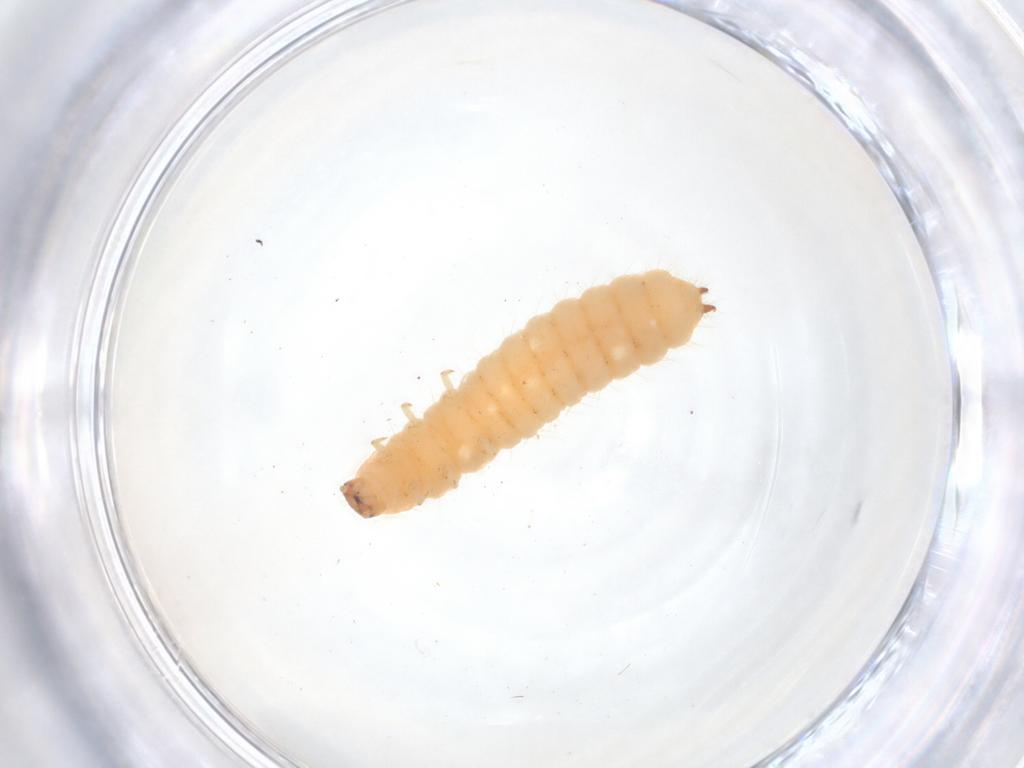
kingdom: Animalia
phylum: Arthropoda
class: Insecta
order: Coleoptera
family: Melyridae
